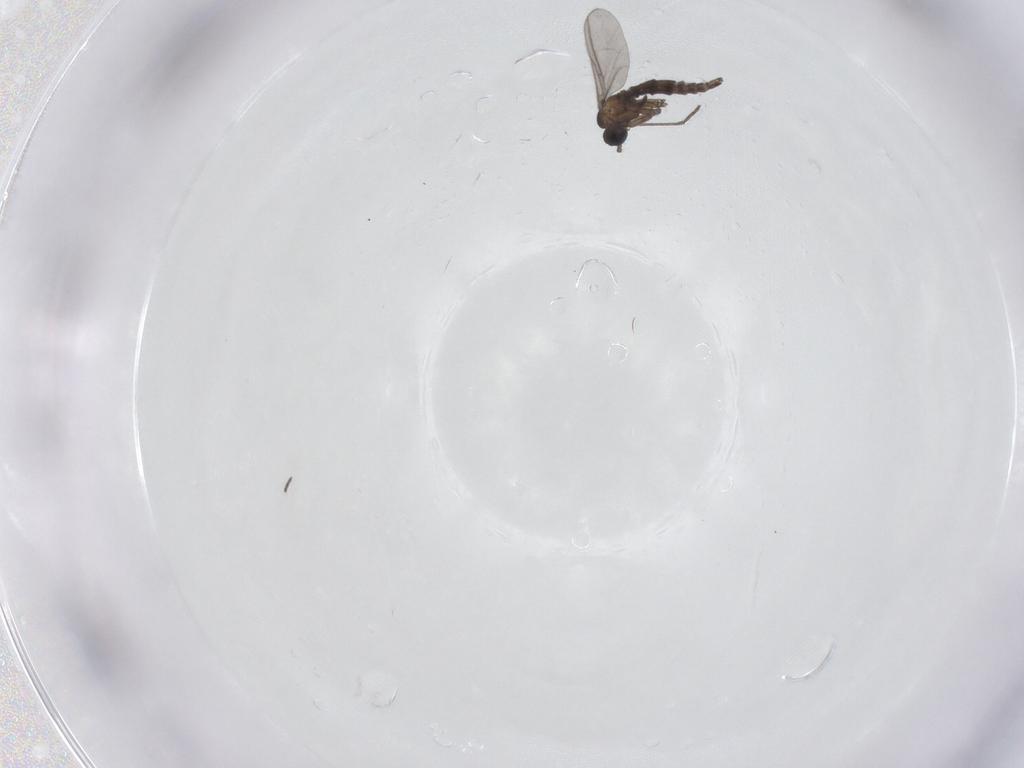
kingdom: Animalia
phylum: Arthropoda
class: Insecta
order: Diptera
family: Sciaridae
